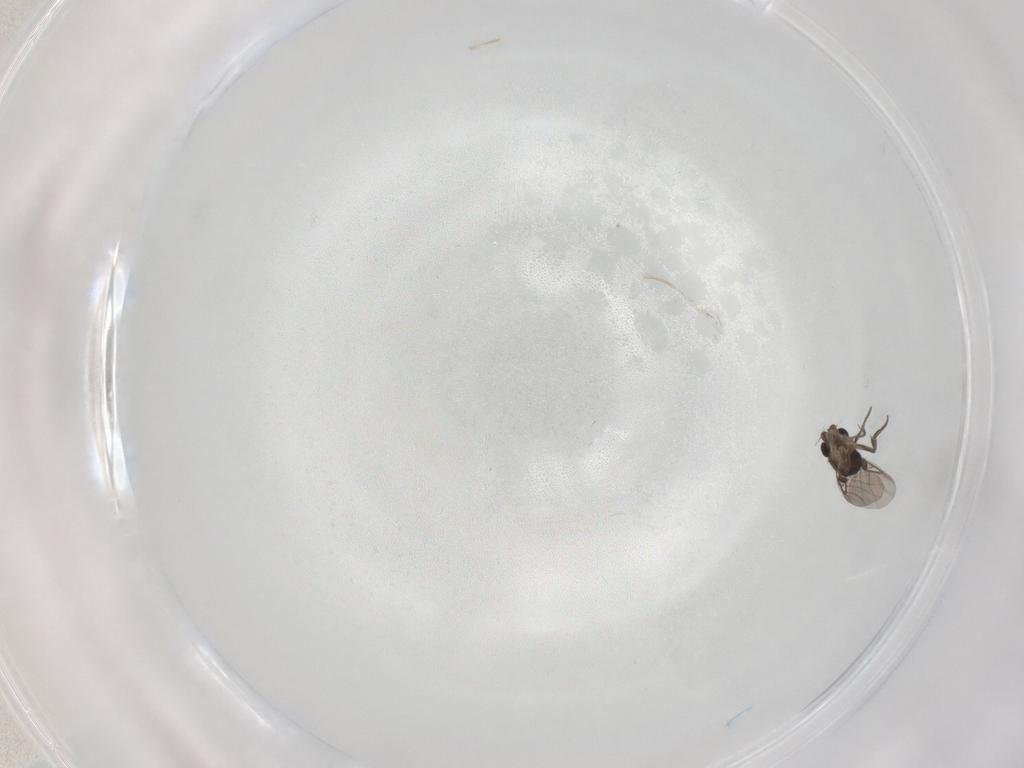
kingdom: Animalia
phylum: Arthropoda
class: Insecta
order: Diptera
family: Phoridae
